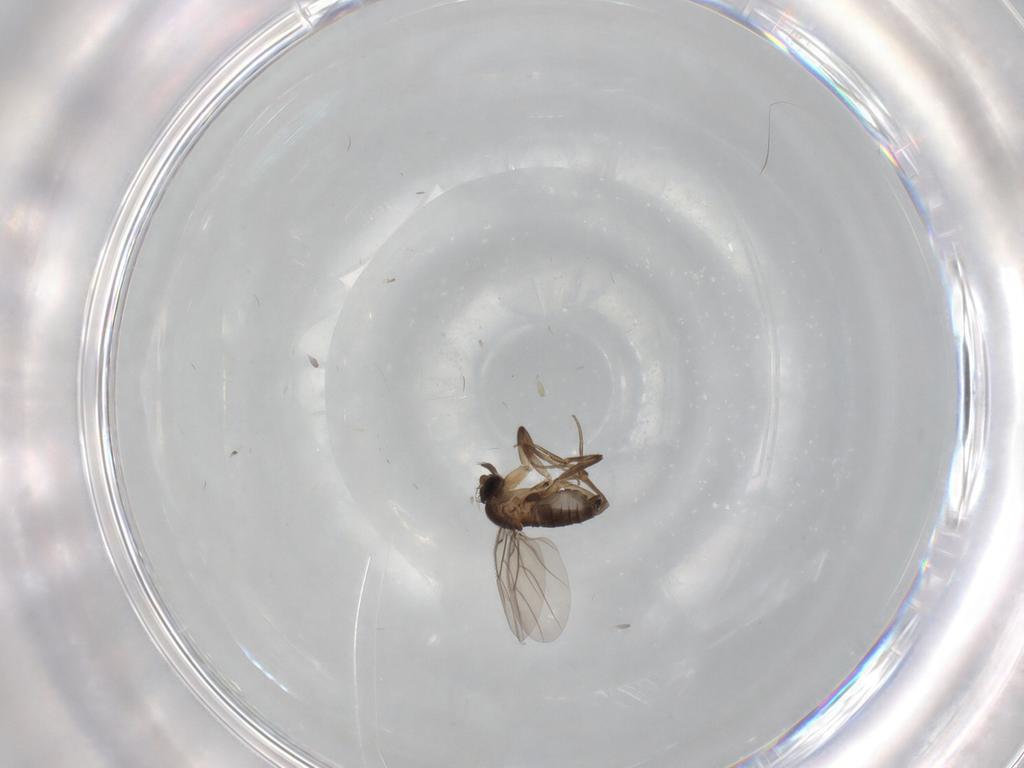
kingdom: Animalia
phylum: Arthropoda
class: Insecta
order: Diptera
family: Phoridae
